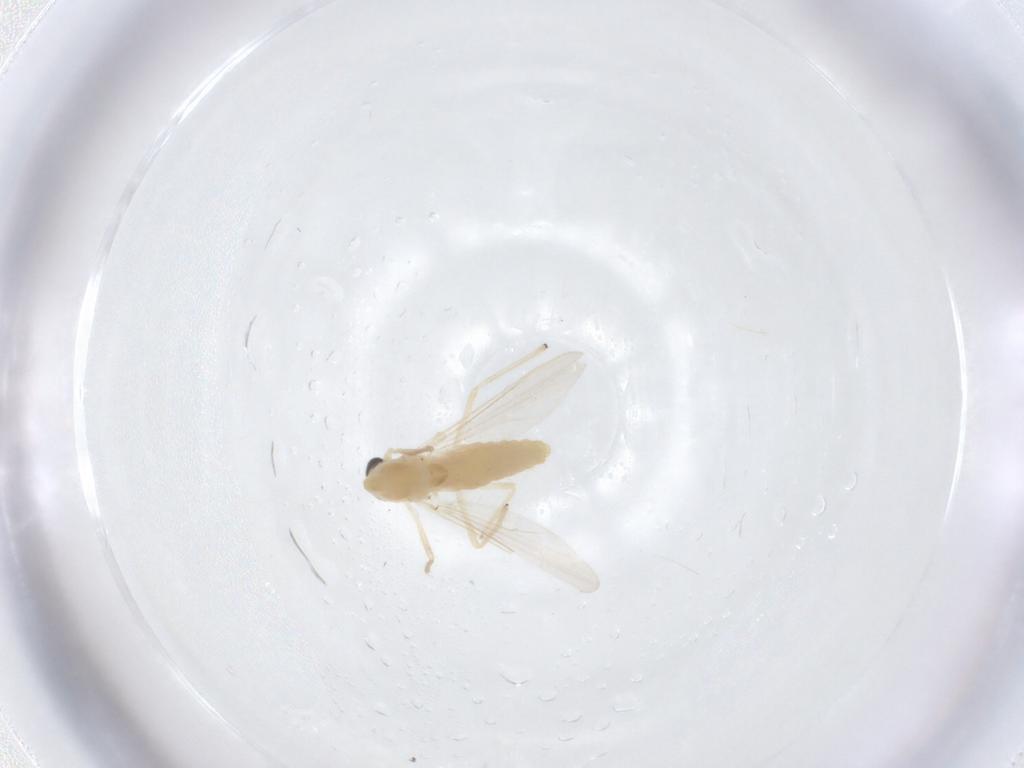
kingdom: Animalia
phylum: Arthropoda
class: Insecta
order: Diptera
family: Chironomidae
